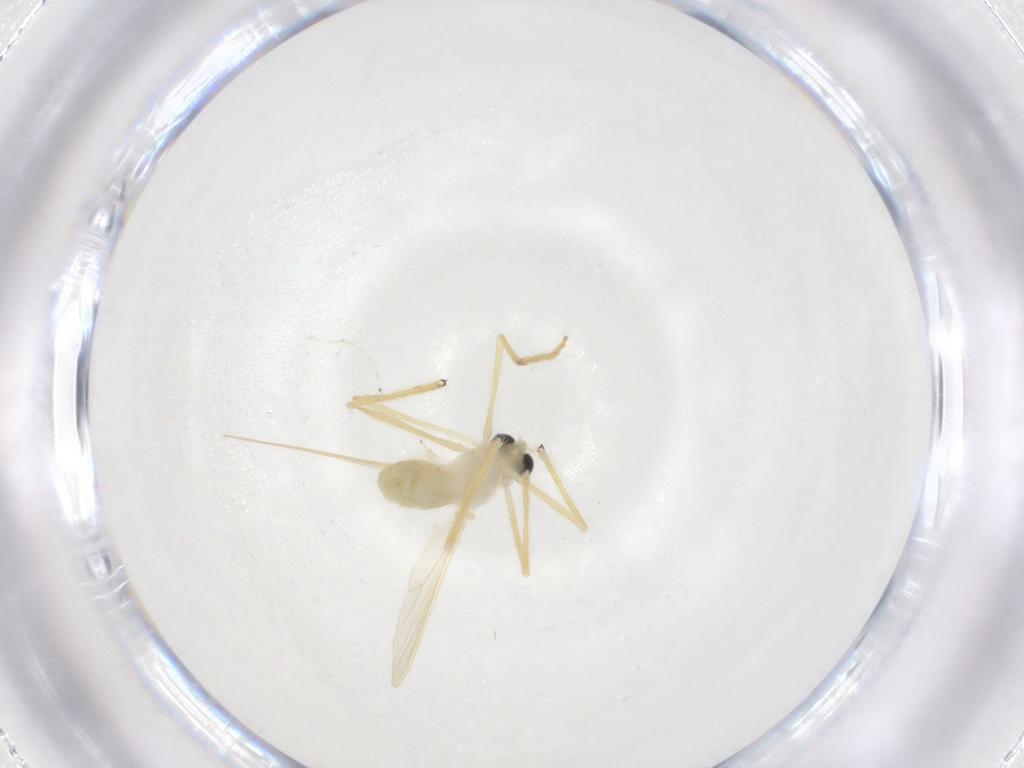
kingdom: Animalia
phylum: Arthropoda
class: Insecta
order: Diptera
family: Chironomidae
